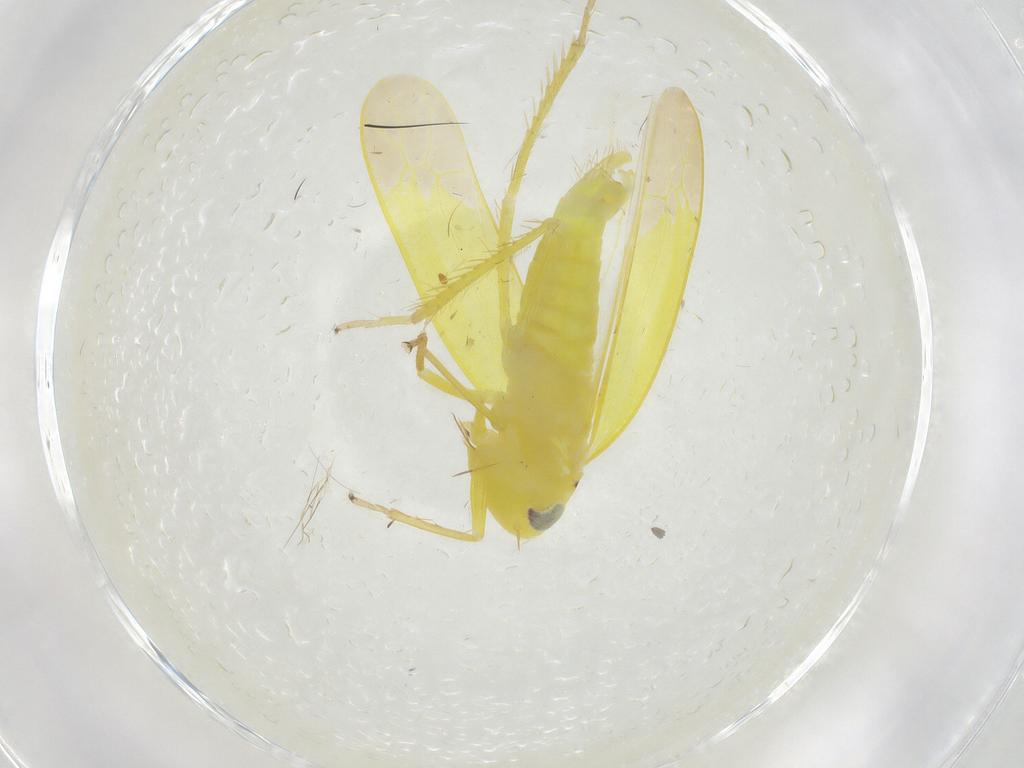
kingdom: Animalia
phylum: Arthropoda
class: Insecta
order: Hemiptera
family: Cicadellidae
